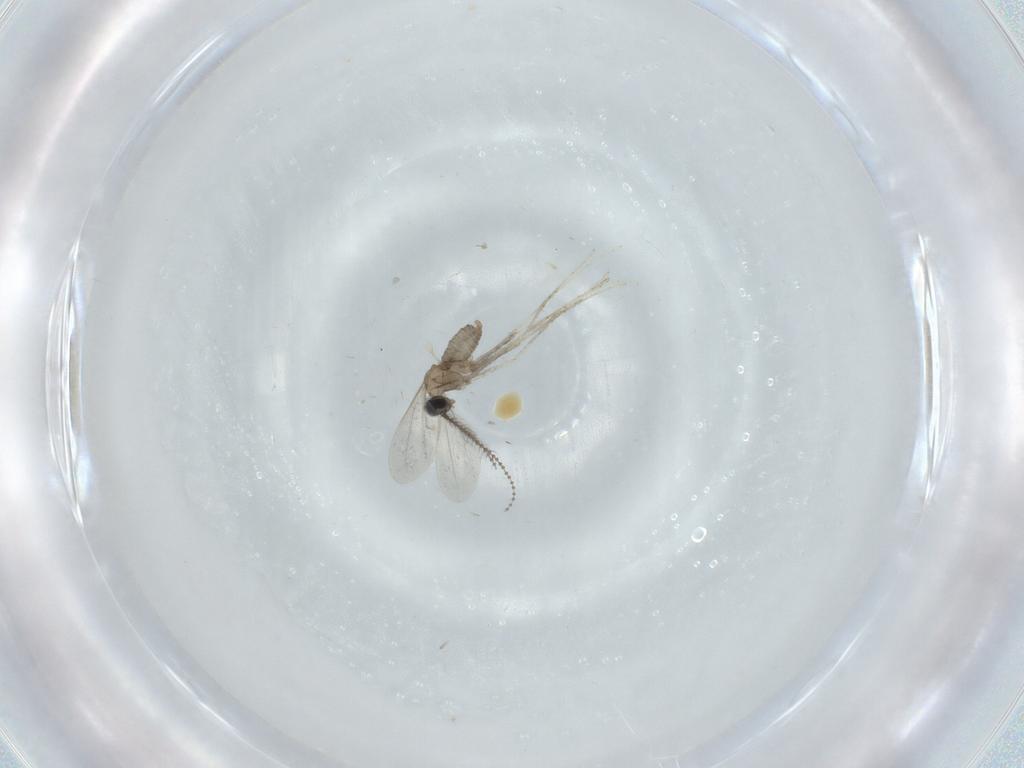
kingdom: Animalia
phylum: Arthropoda
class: Insecta
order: Diptera
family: Cecidomyiidae
